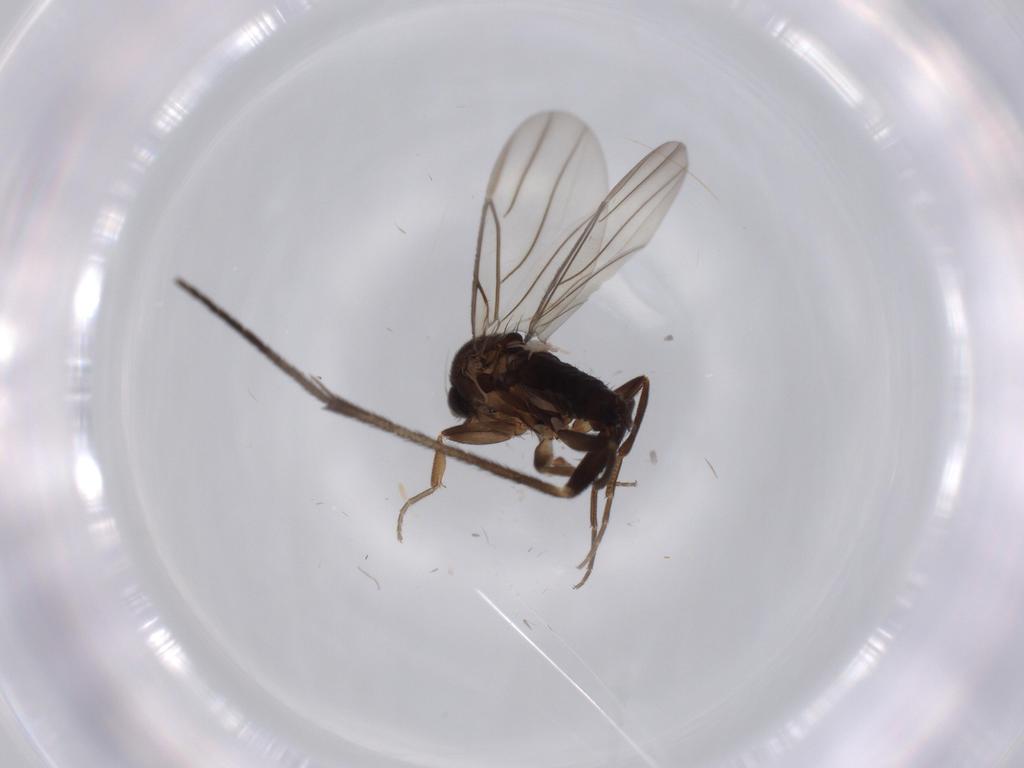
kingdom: Animalia
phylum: Arthropoda
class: Insecta
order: Diptera
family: Sciaridae
